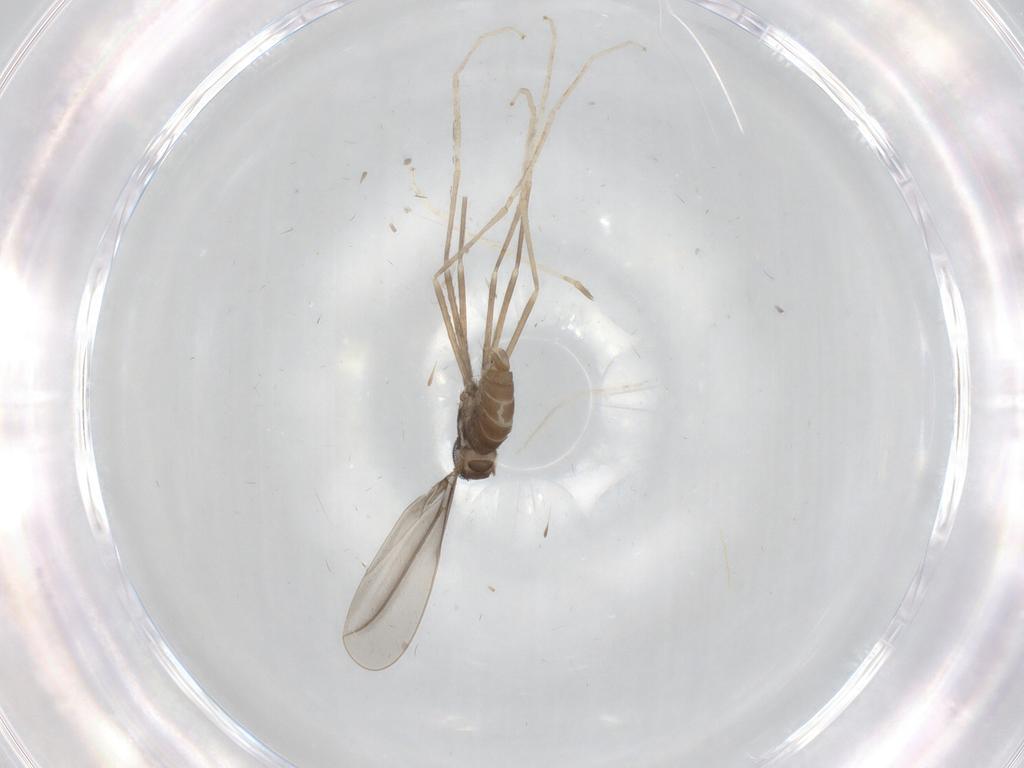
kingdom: Animalia
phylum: Arthropoda
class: Insecta
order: Diptera
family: Cecidomyiidae
